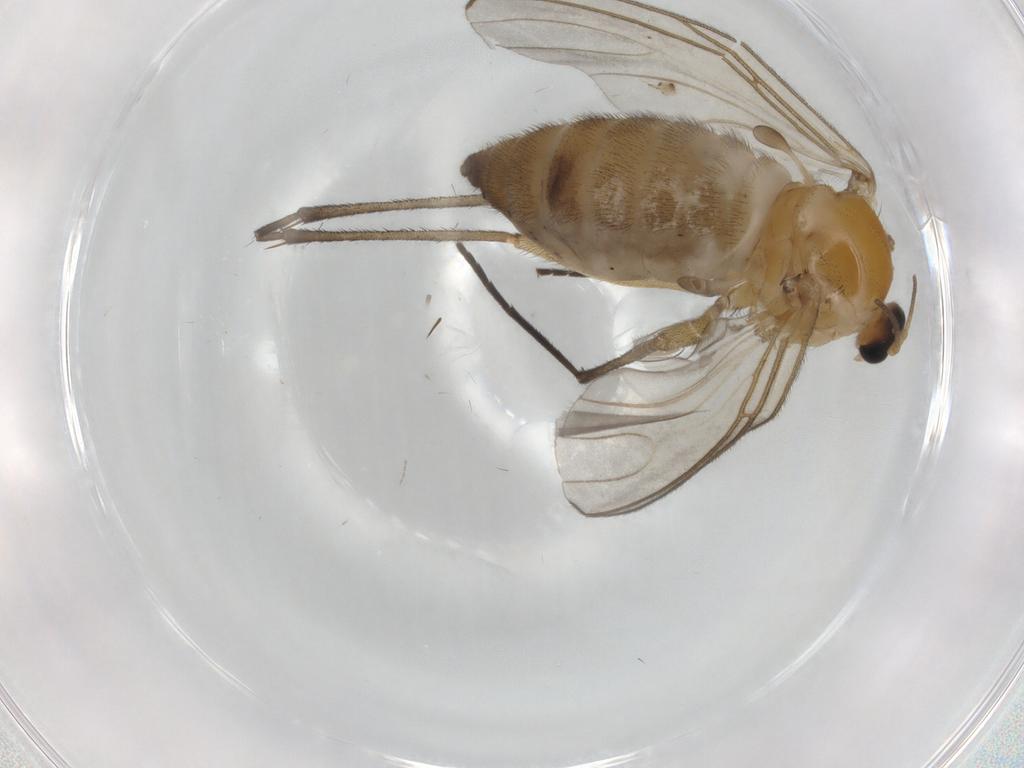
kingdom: Animalia
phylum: Arthropoda
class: Insecta
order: Diptera
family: Sciaridae
